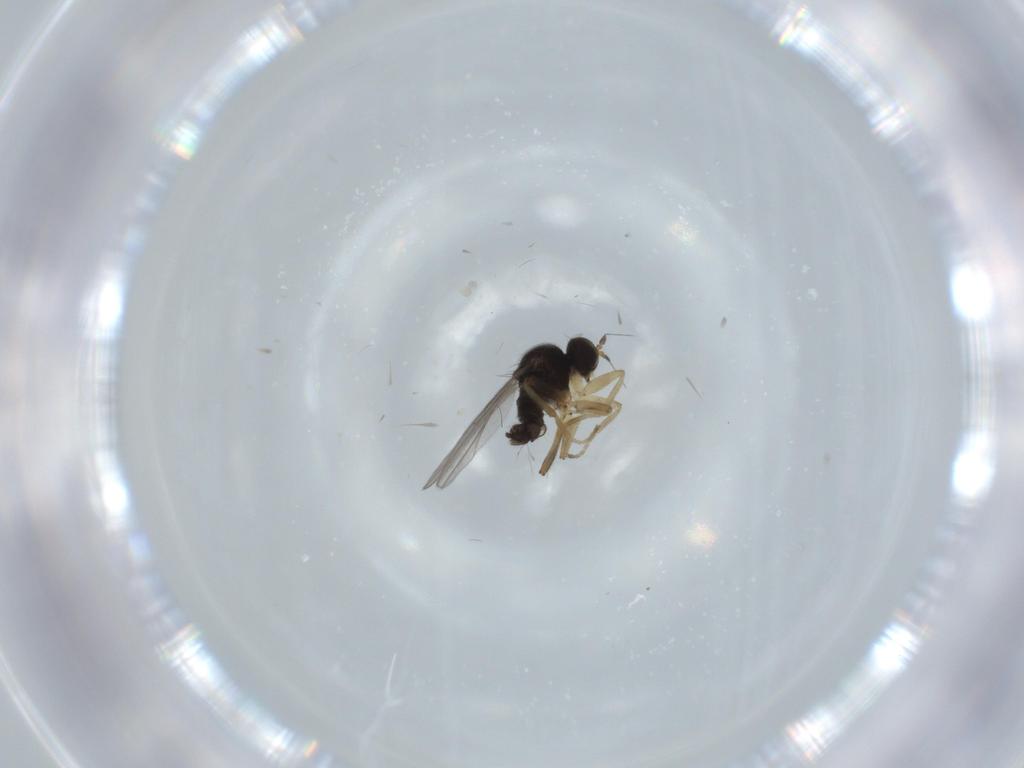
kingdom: Animalia
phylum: Arthropoda
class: Insecta
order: Diptera
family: Hybotidae
